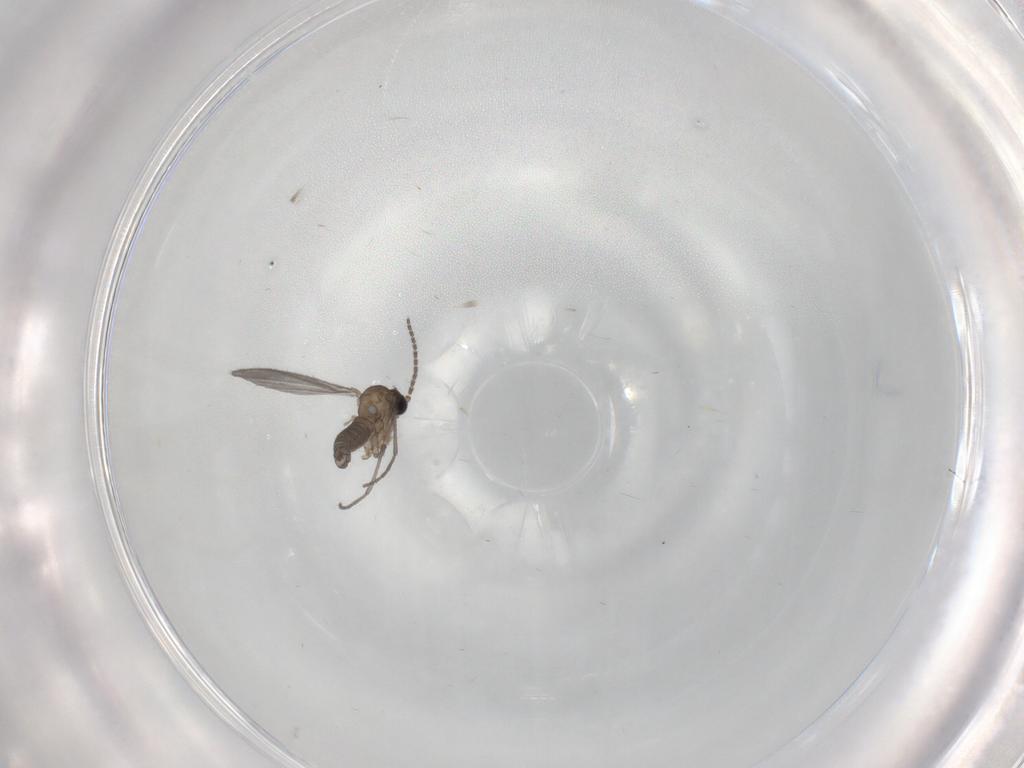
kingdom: Animalia
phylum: Arthropoda
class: Insecta
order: Diptera
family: Sciaridae
